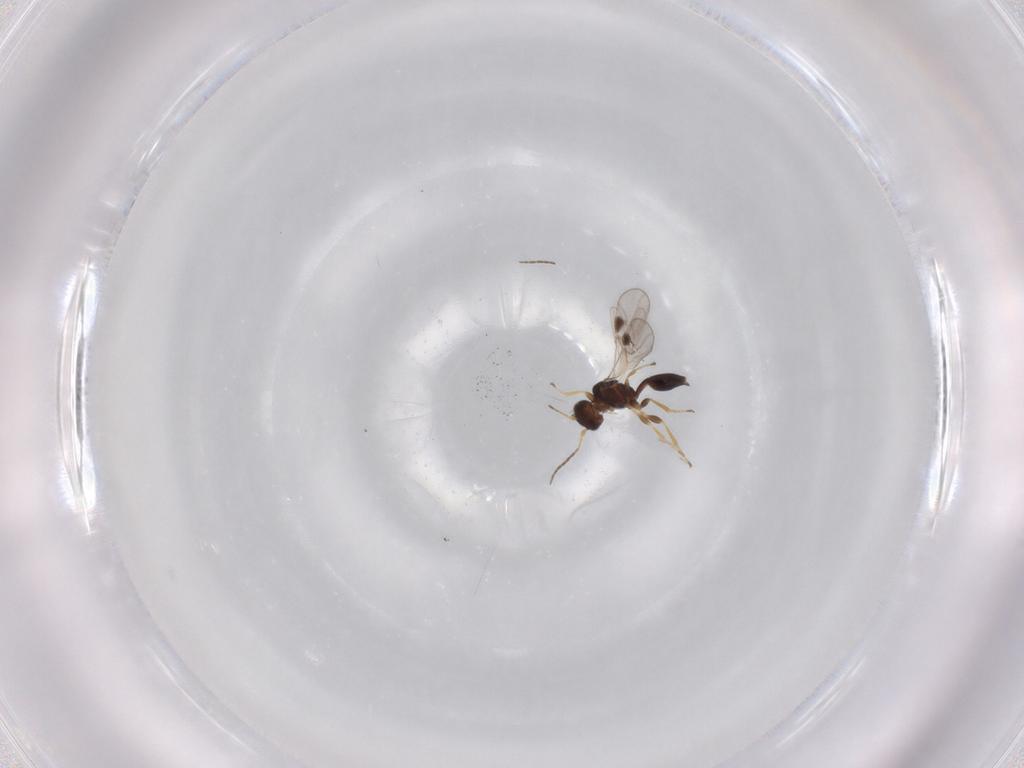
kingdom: Animalia
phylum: Arthropoda
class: Insecta
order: Hymenoptera
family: Braconidae
